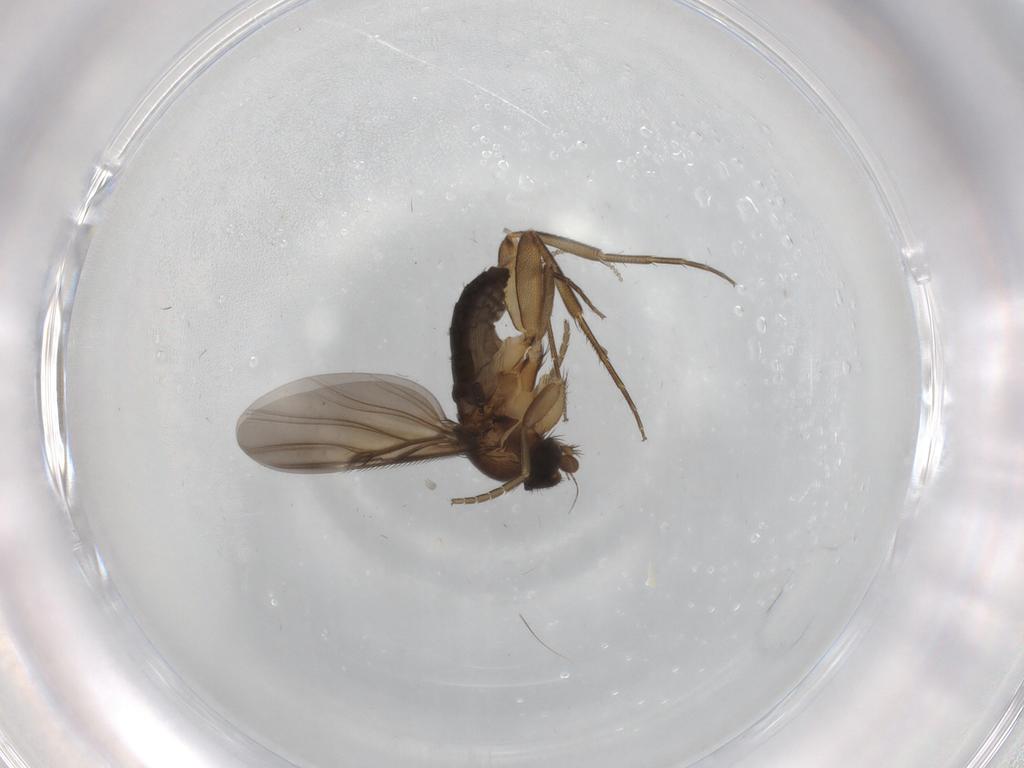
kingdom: Animalia
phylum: Arthropoda
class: Insecta
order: Diptera
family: Phoridae
